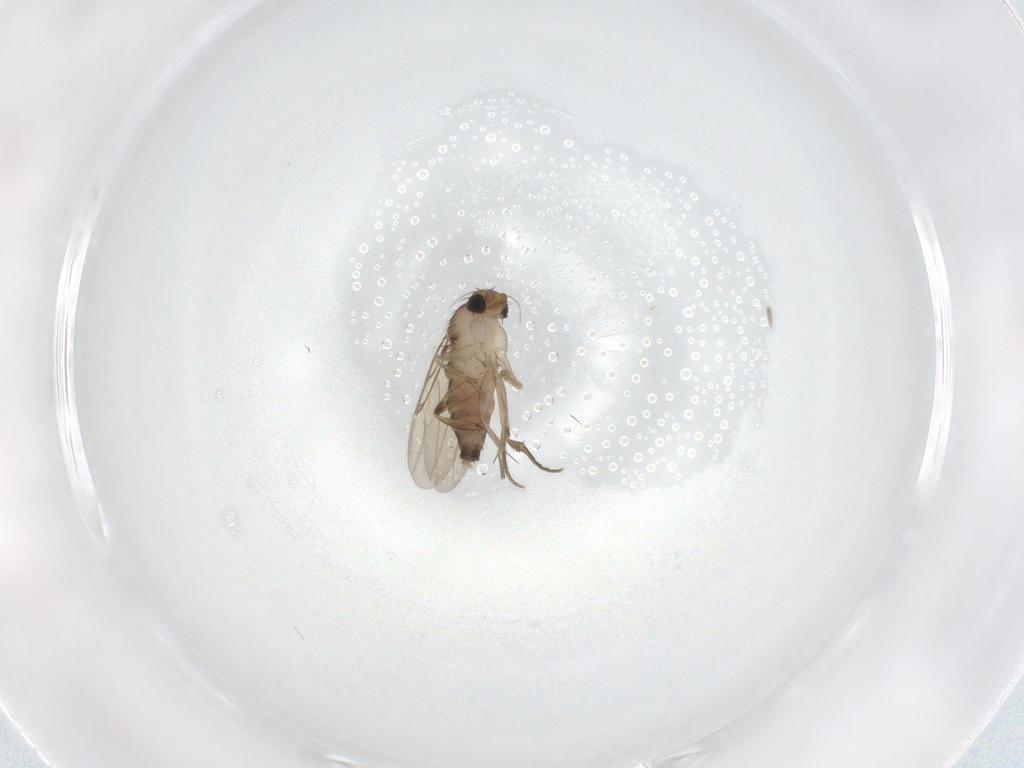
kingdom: Animalia
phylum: Arthropoda
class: Insecta
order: Diptera
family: Phoridae
